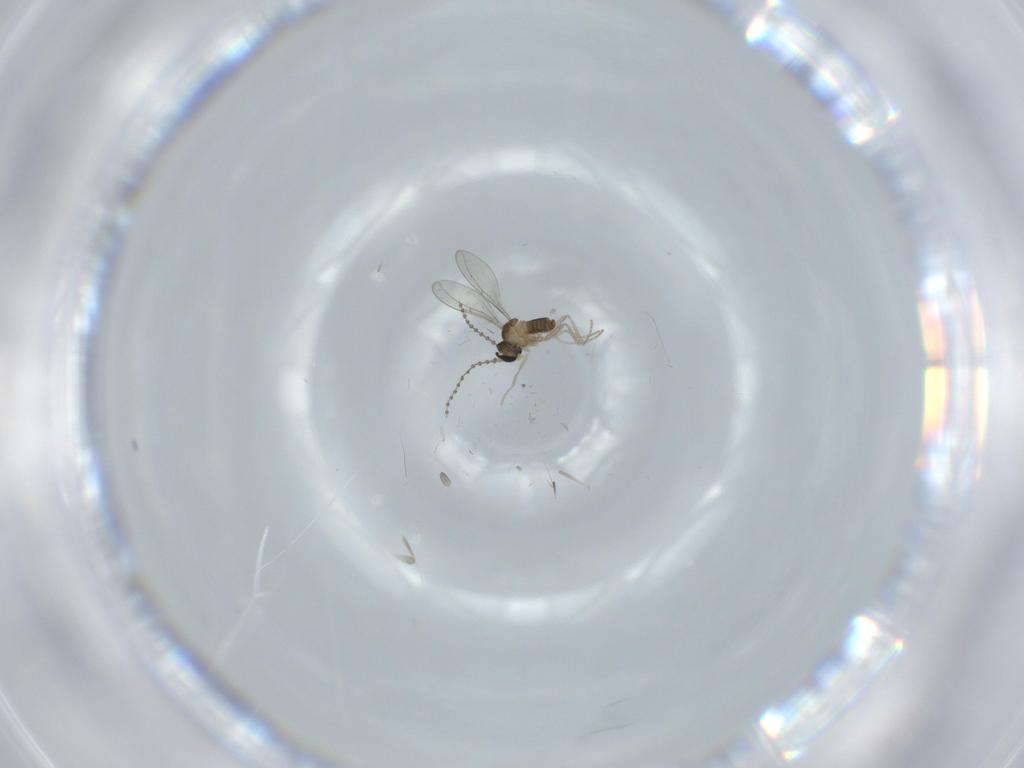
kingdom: Animalia
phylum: Arthropoda
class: Insecta
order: Diptera
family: Cecidomyiidae
